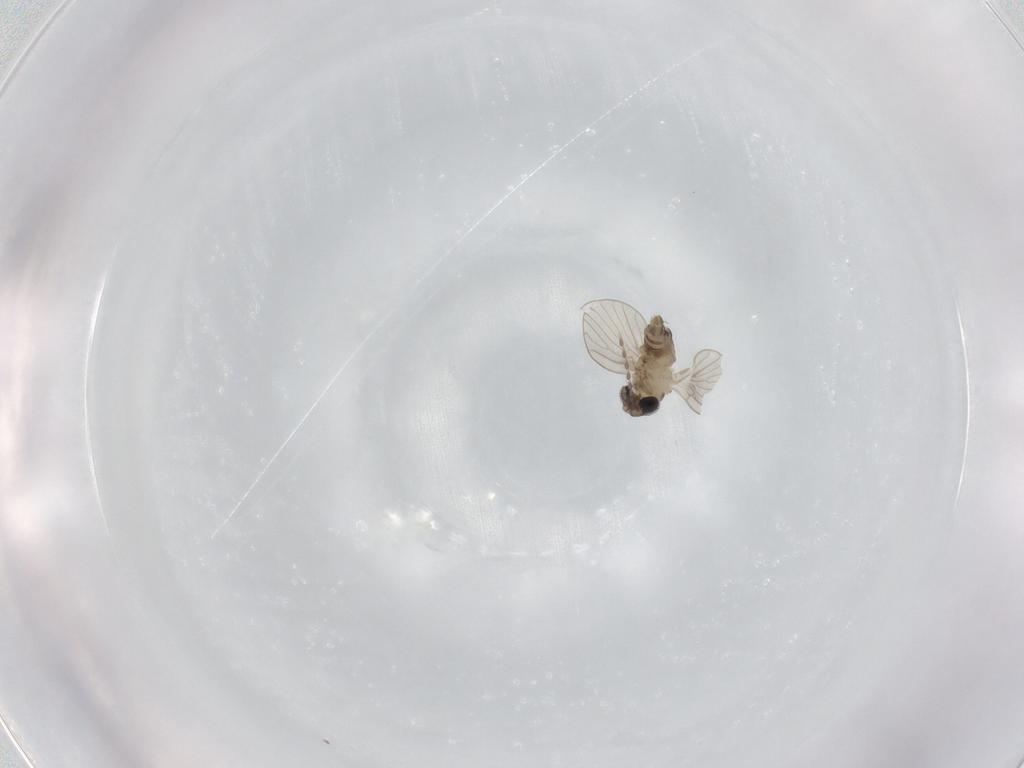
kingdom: Animalia
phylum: Arthropoda
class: Insecta
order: Diptera
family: Psychodidae
